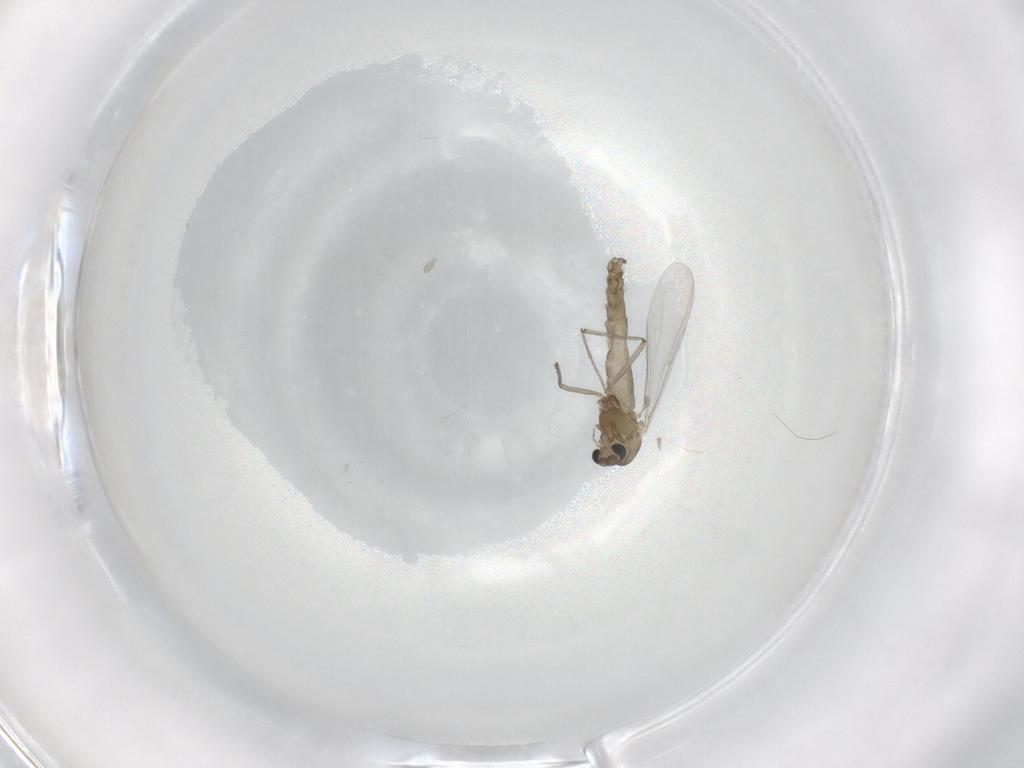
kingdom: Animalia
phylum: Arthropoda
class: Insecta
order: Diptera
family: Chironomidae
